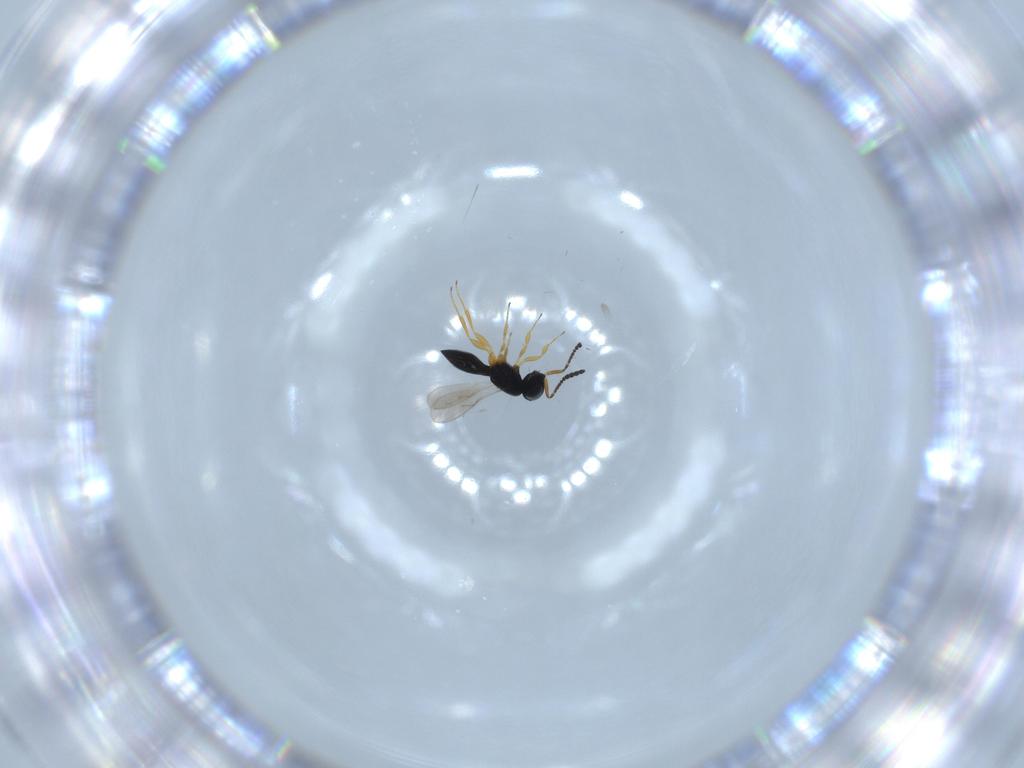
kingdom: Animalia
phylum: Arthropoda
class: Insecta
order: Hymenoptera
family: Scelionidae
